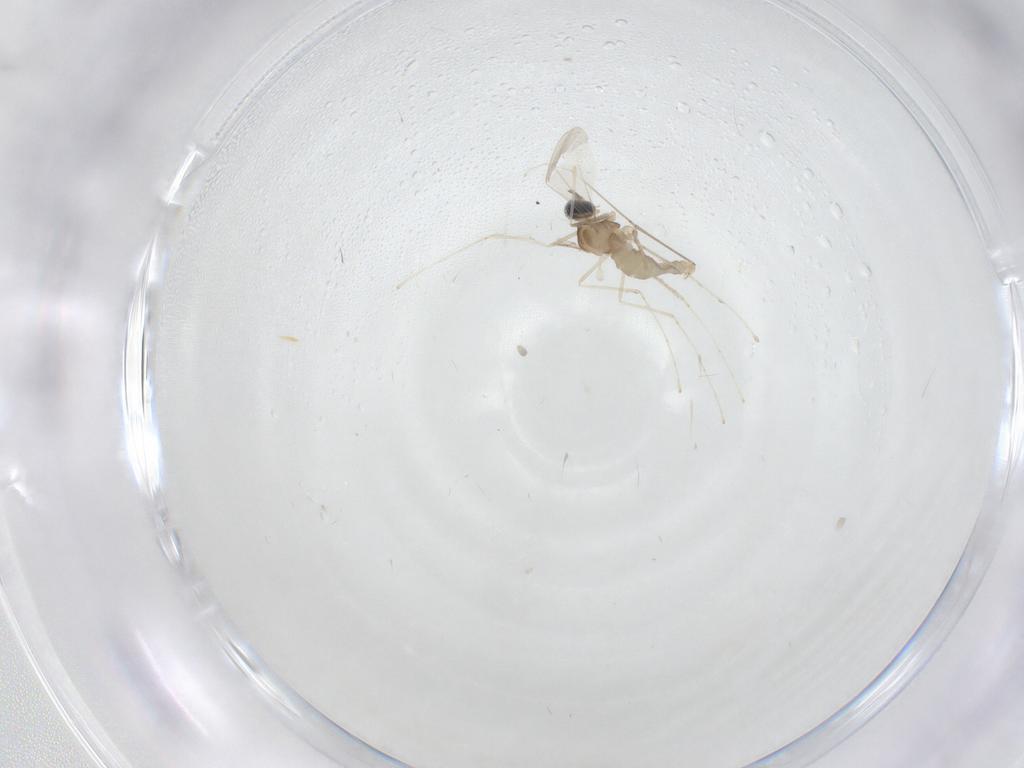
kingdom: Animalia
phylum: Arthropoda
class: Insecta
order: Diptera
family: Cecidomyiidae
